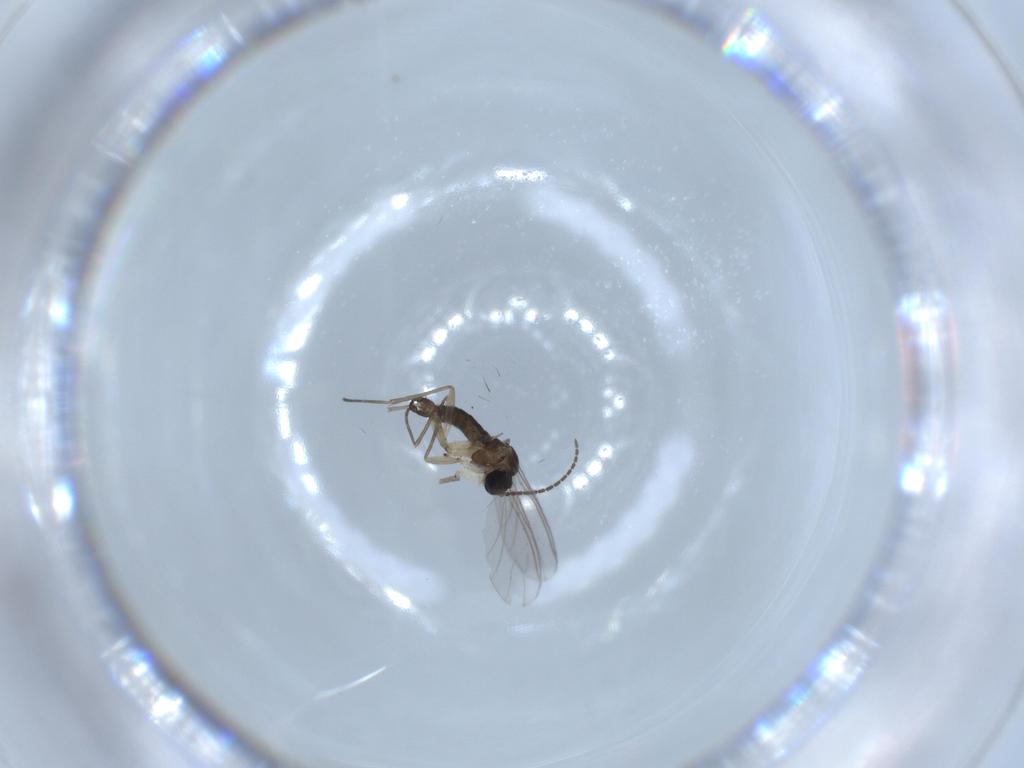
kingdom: Animalia
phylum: Arthropoda
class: Insecta
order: Diptera
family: Sciaridae
